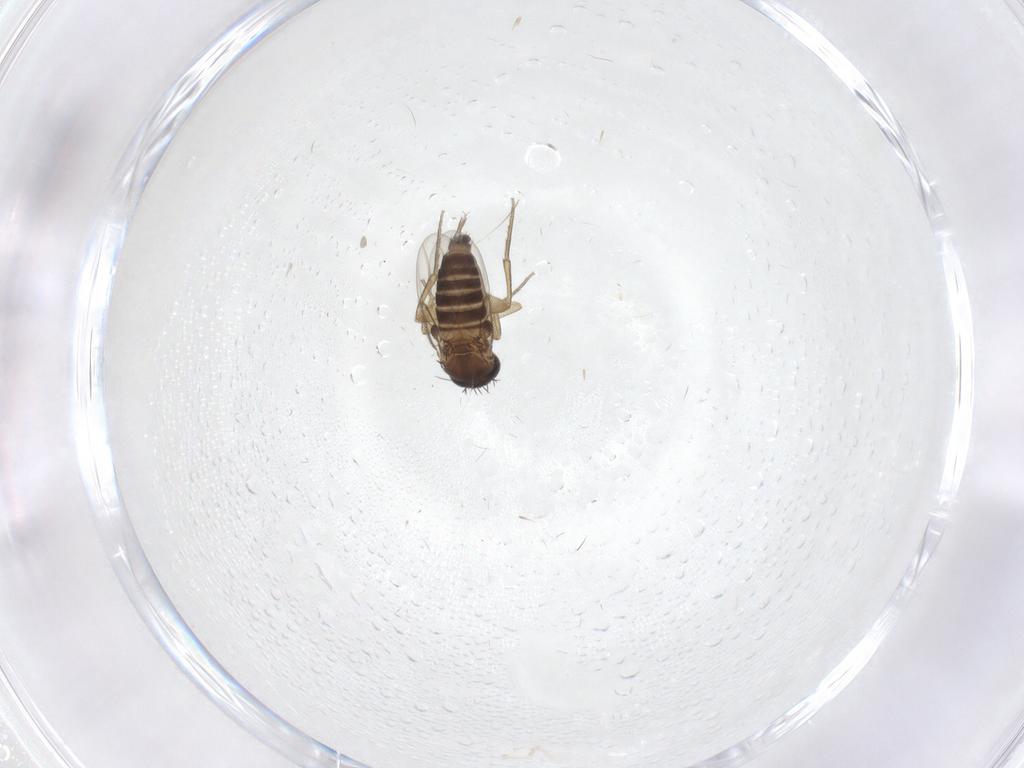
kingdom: Animalia
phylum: Arthropoda
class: Insecta
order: Diptera
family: Phoridae
